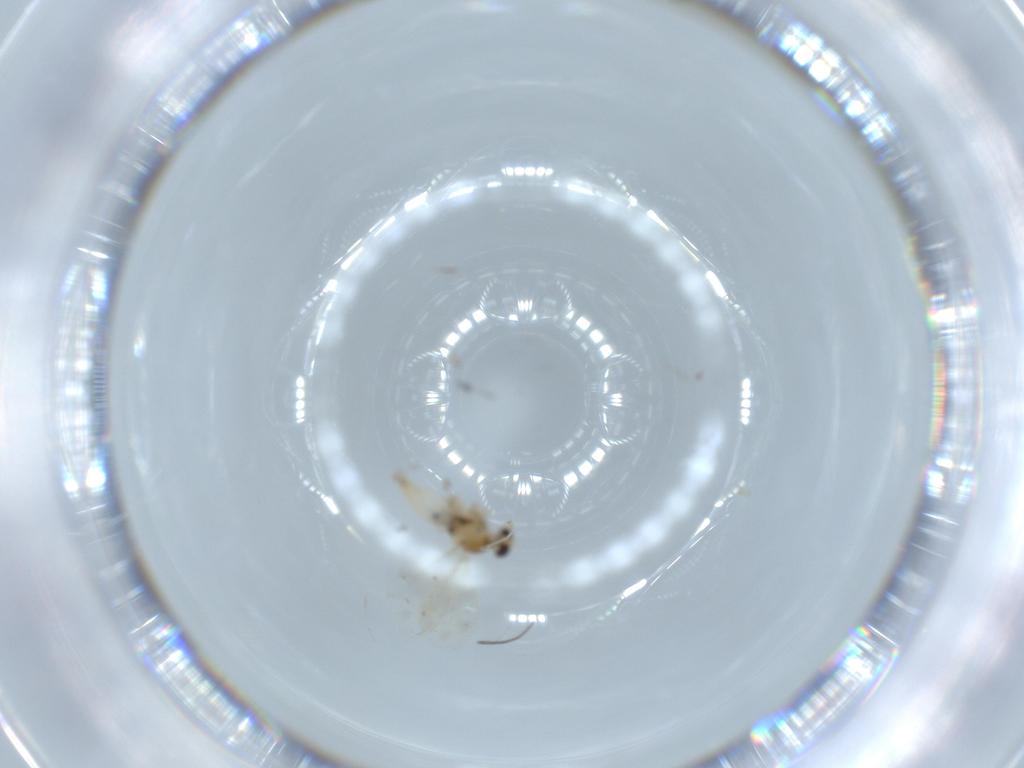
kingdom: Animalia
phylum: Arthropoda
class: Insecta
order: Diptera
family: Cecidomyiidae
